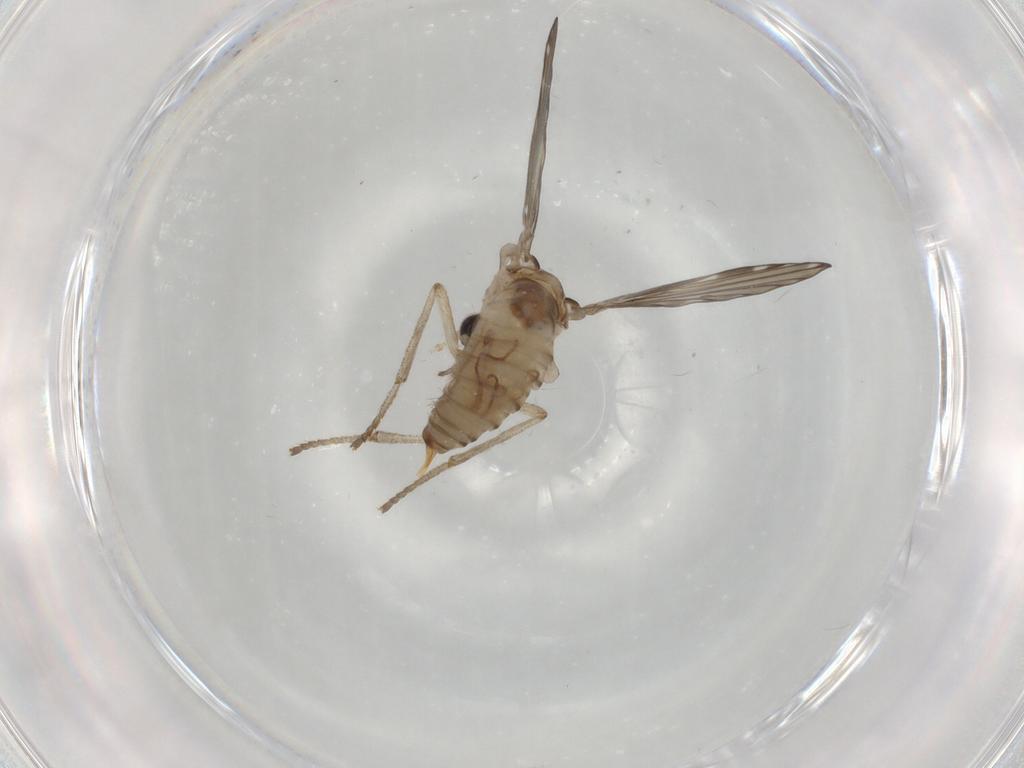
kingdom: Animalia
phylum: Arthropoda
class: Insecta
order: Diptera
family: Psychodidae
